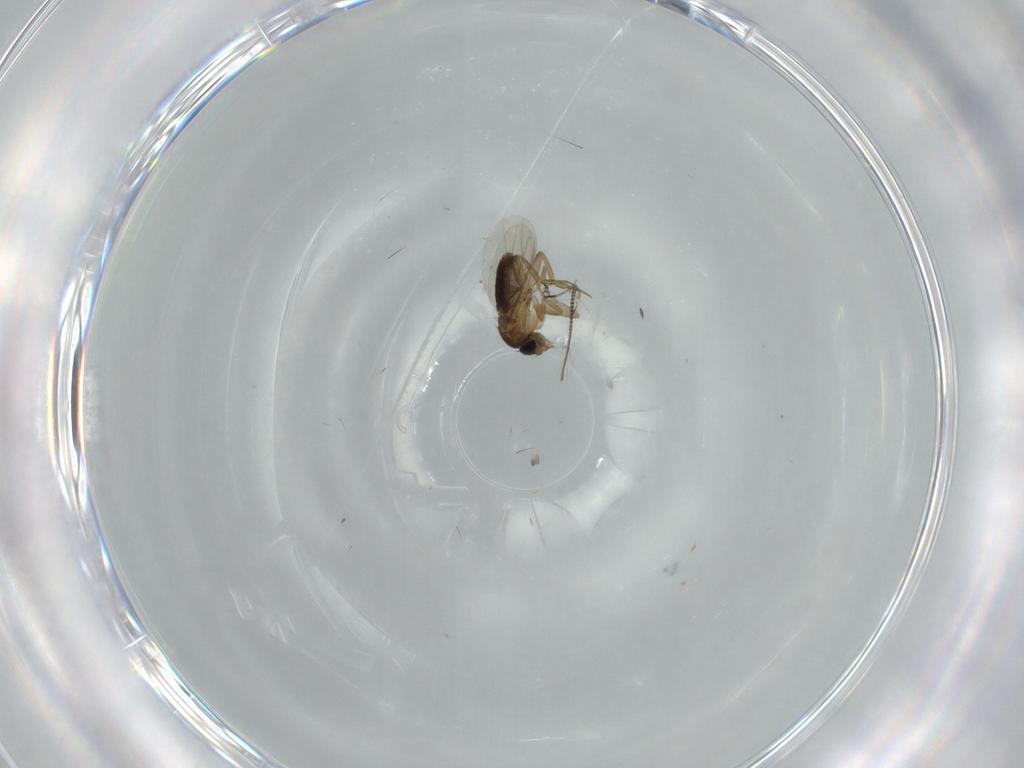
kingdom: Animalia
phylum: Arthropoda
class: Insecta
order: Diptera
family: Phoridae
